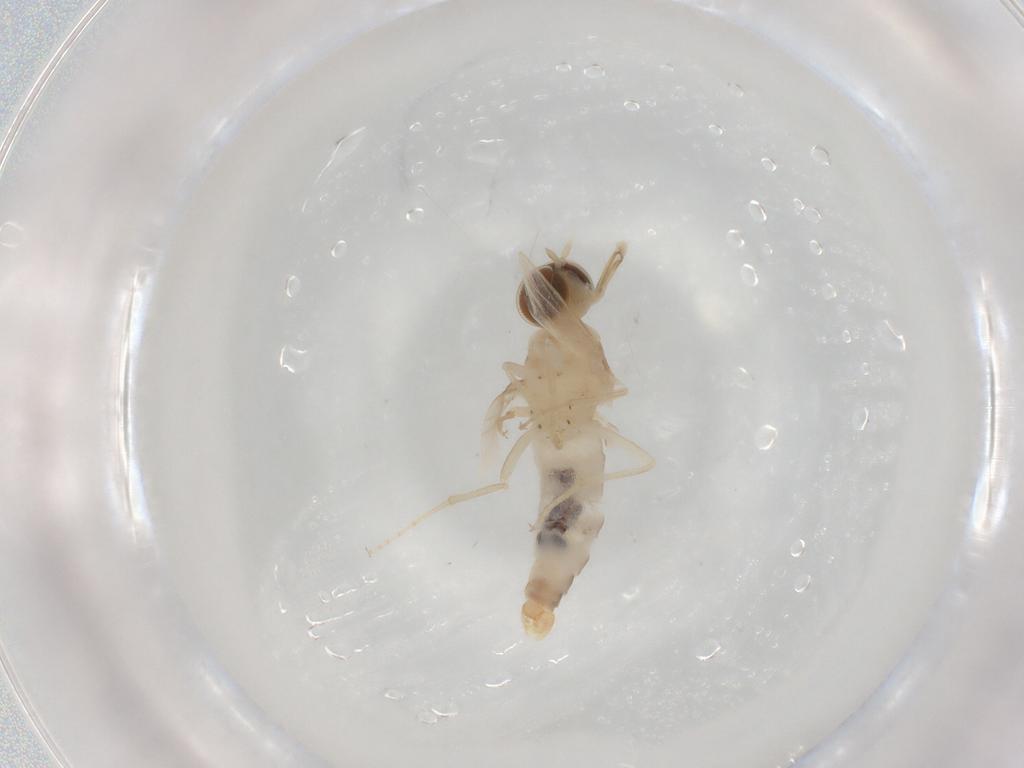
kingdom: Animalia
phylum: Arthropoda
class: Insecta
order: Diptera
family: Scenopinidae
